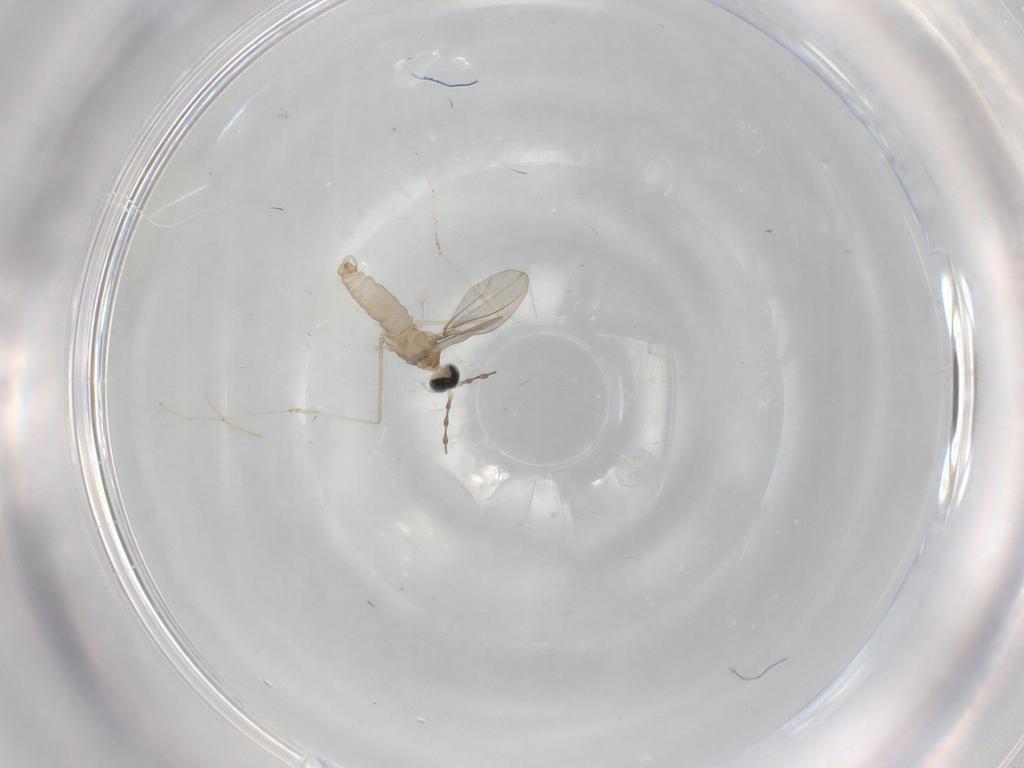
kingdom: Animalia
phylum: Arthropoda
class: Insecta
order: Diptera
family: Cecidomyiidae
